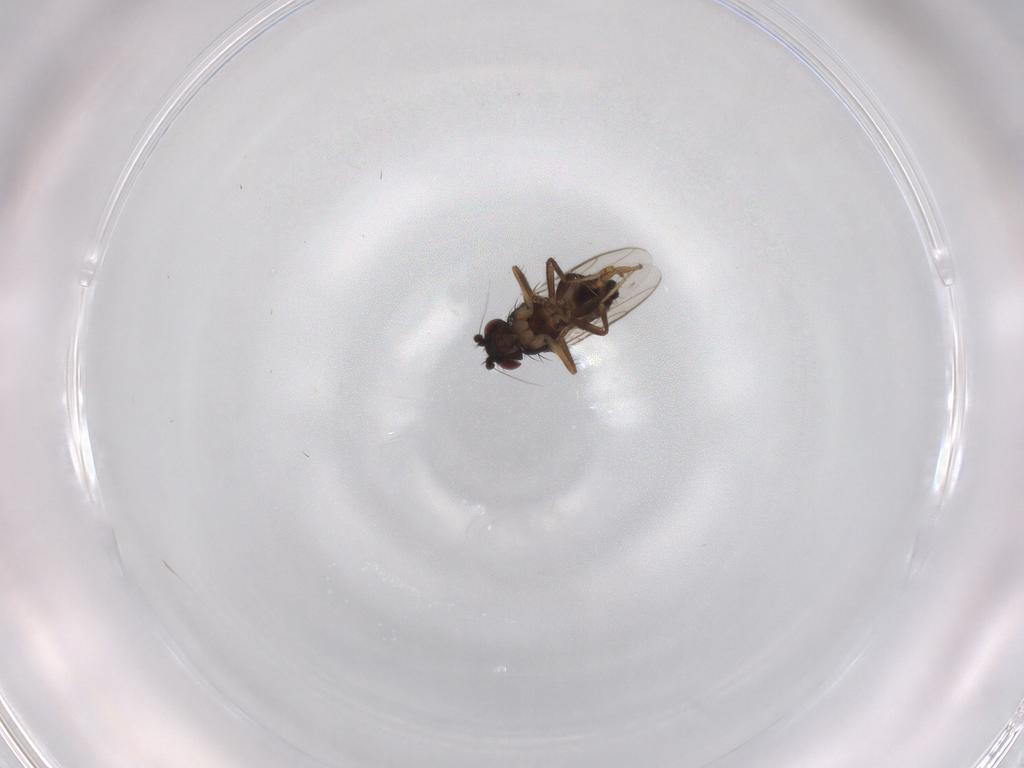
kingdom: Animalia
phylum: Arthropoda
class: Insecta
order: Diptera
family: Sphaeroceridae
